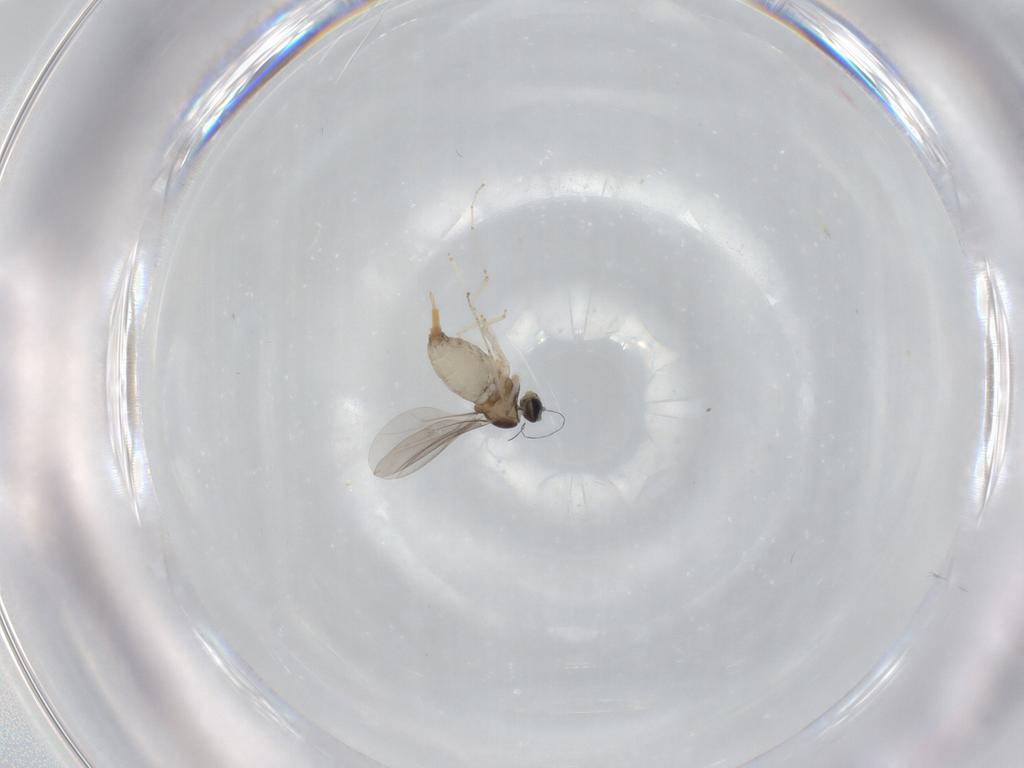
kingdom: Animalia
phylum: Arthropoda
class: Insecta
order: Diptera
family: Cecidomyiidae
